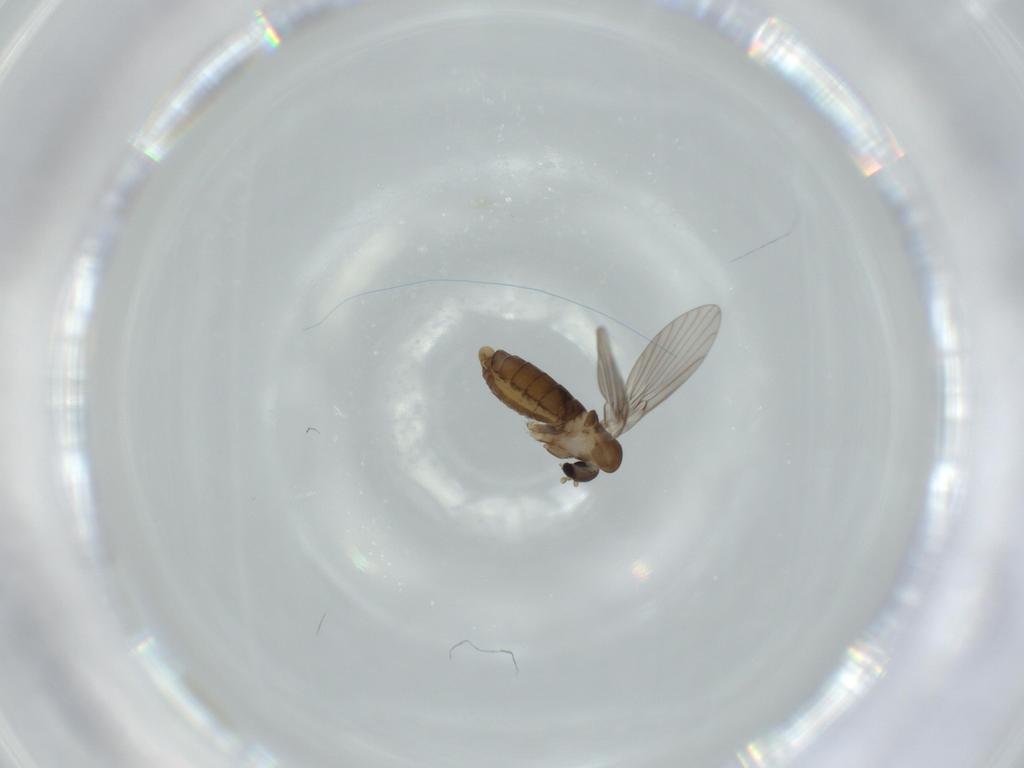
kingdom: Animalia
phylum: Arthropoda
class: Insecta
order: Diptera
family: Psychodidae
